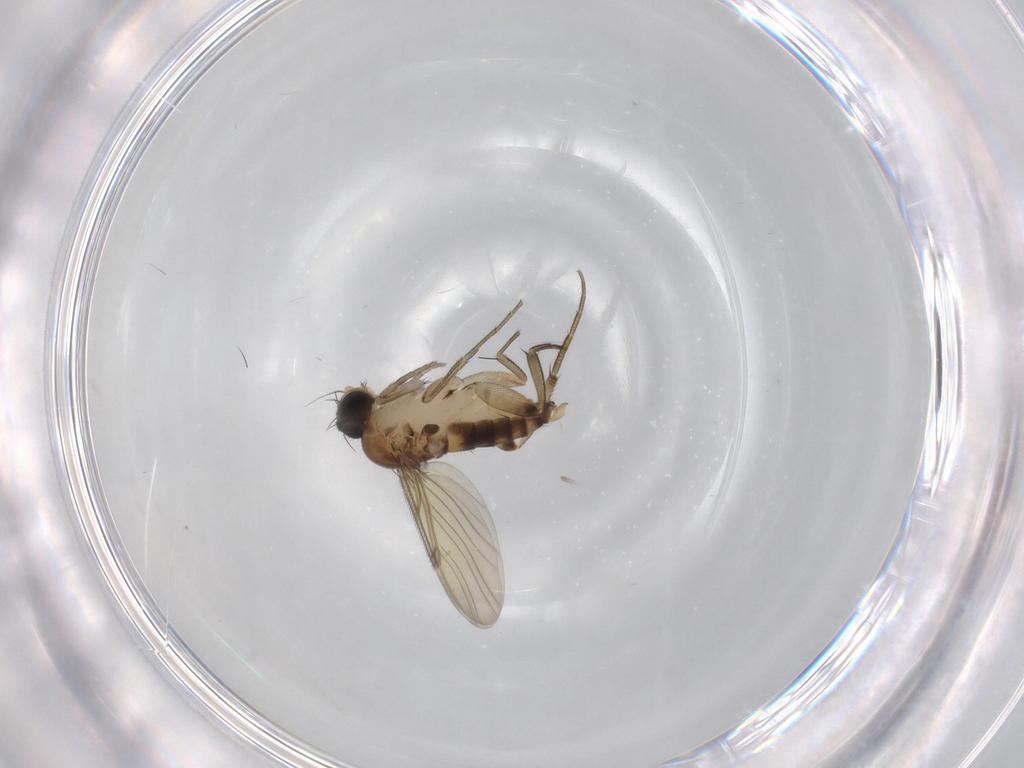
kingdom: Animalia
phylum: Arthropoda
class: Insecta
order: Diptera
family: Phoridae
